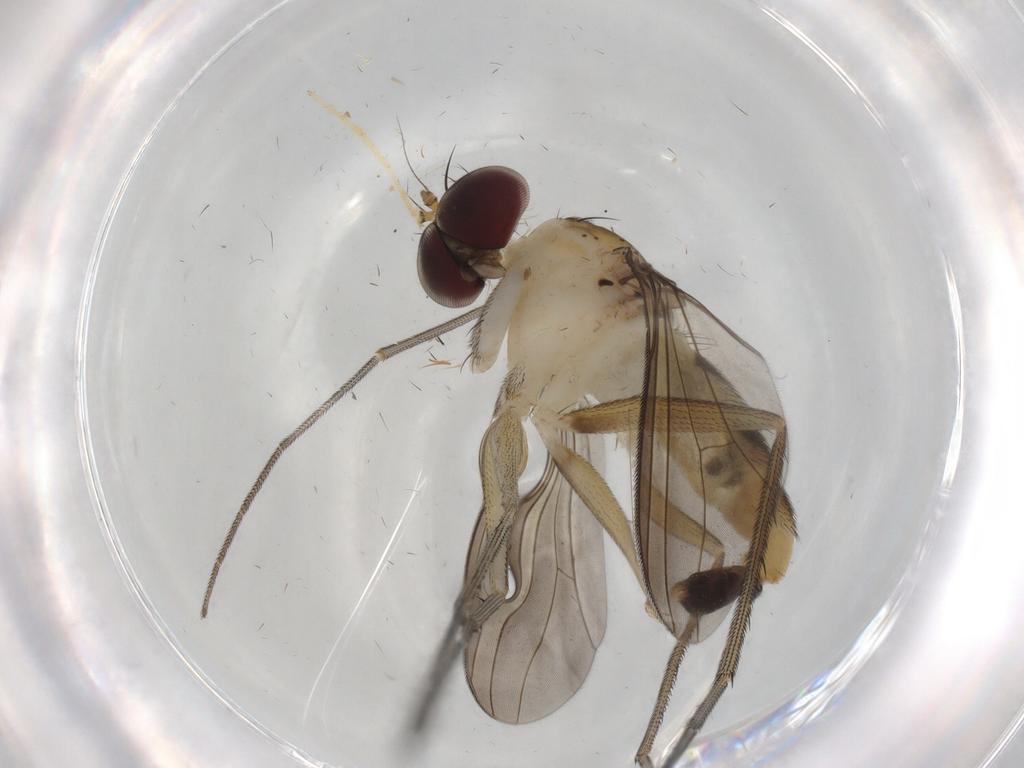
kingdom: Animalia
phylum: Arthropoda
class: Insecta
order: Diptera
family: Dolichopodidae
